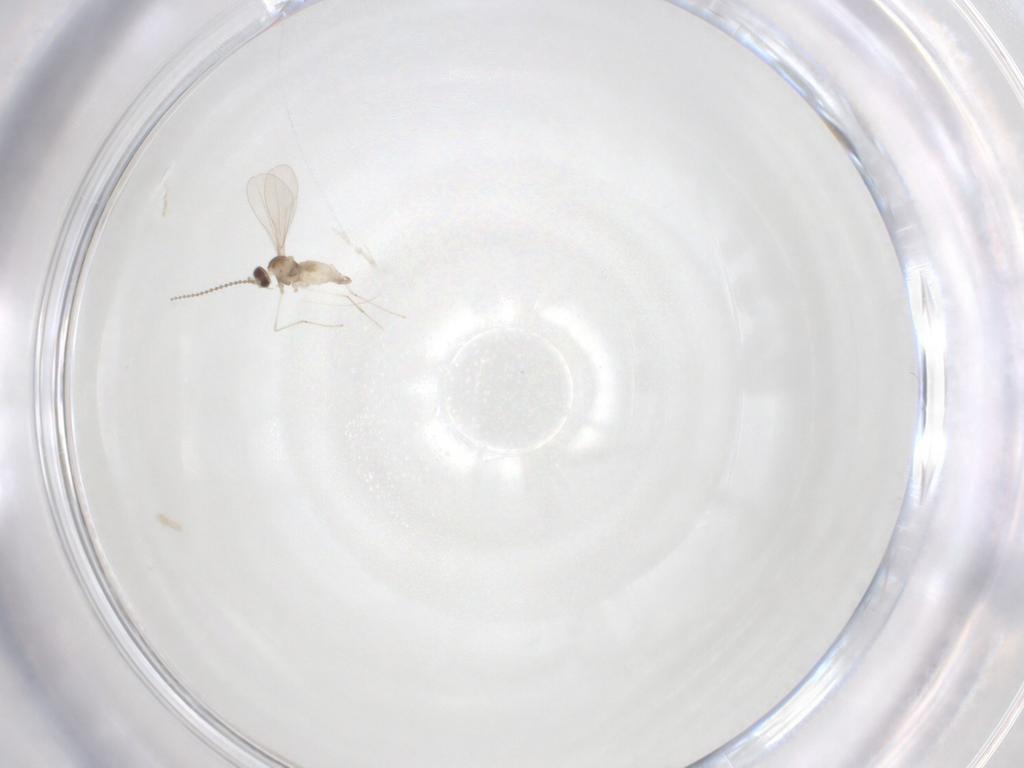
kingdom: Animalia
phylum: Arthropoda
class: Insecta
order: Diptera
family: Cecidomyiidae
